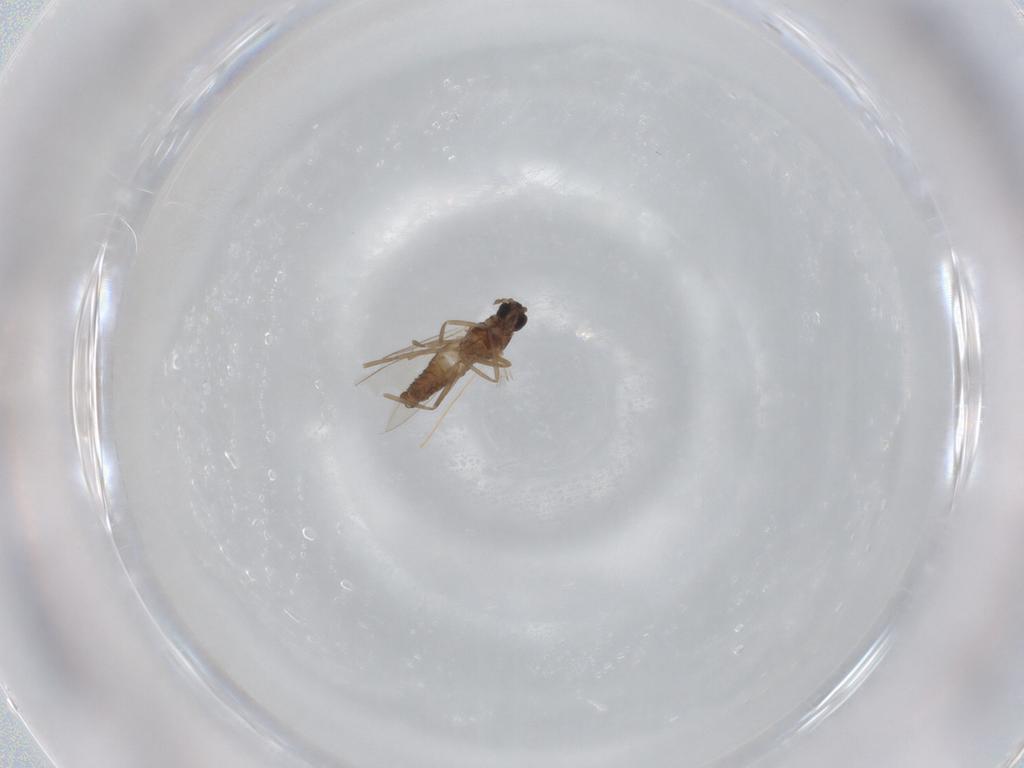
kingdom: Animalia
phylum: Arthropoda
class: Insecta
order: Diptera
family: Cecidomyiidae
